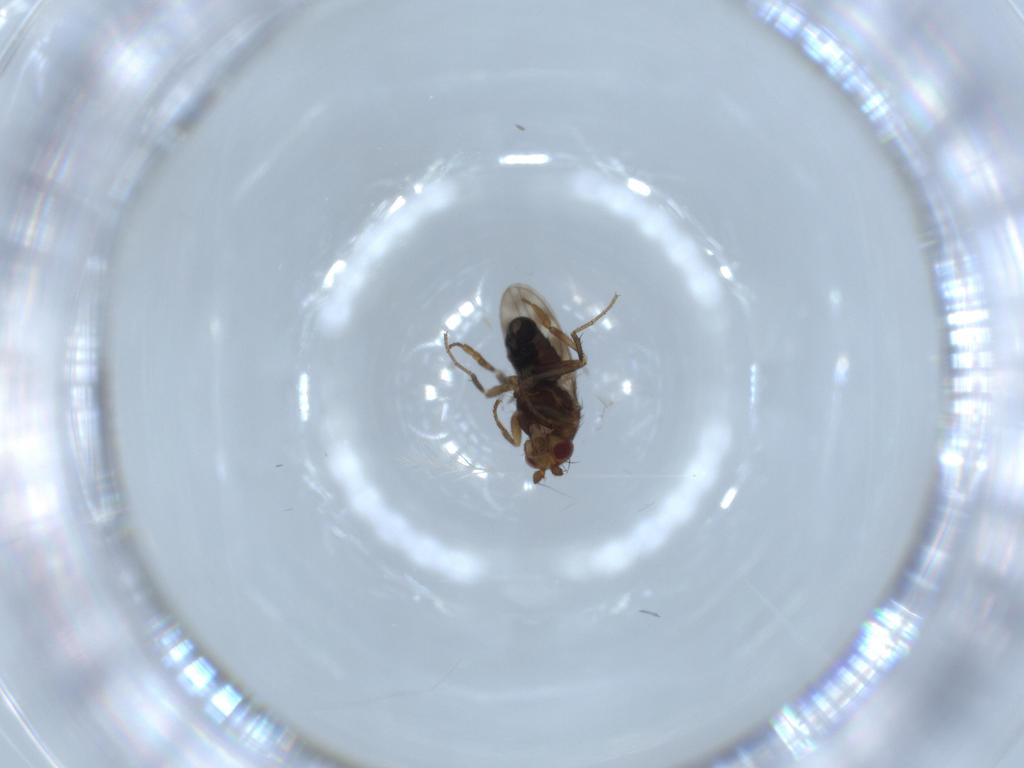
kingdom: Animalia
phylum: Arthropoda
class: Insecta
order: Diptera
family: Sphaeroceridae
